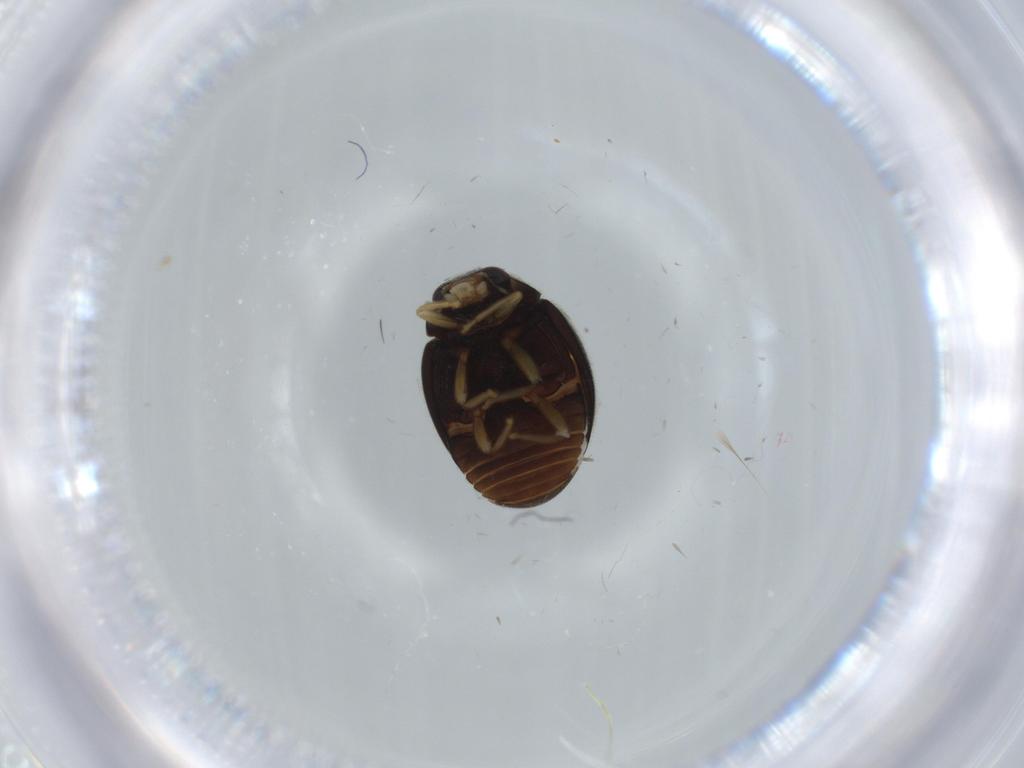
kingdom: Animalia
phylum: Arthropoda
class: Insecta
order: Coleoptera
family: Coccinellidae
